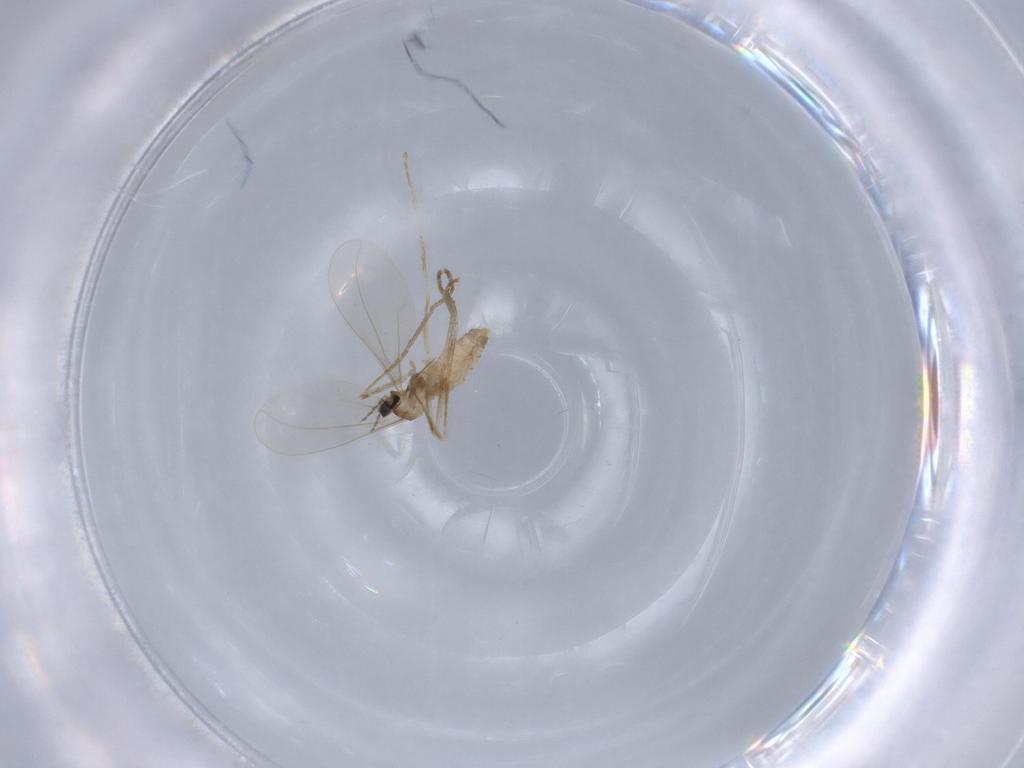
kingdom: Animalia
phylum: Arthropoda
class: Insecta
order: Diptera
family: Cecidomyiidae
